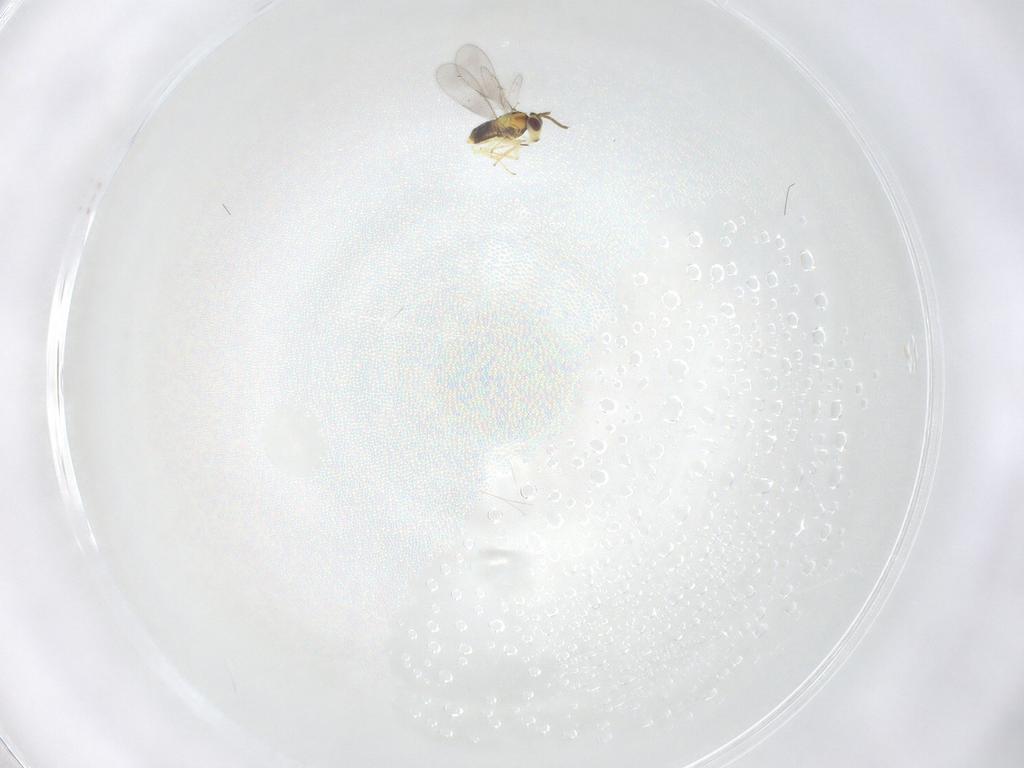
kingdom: Animalia
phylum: Arthropoda
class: Insecta
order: Hymenoptera
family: Aphelinidae
